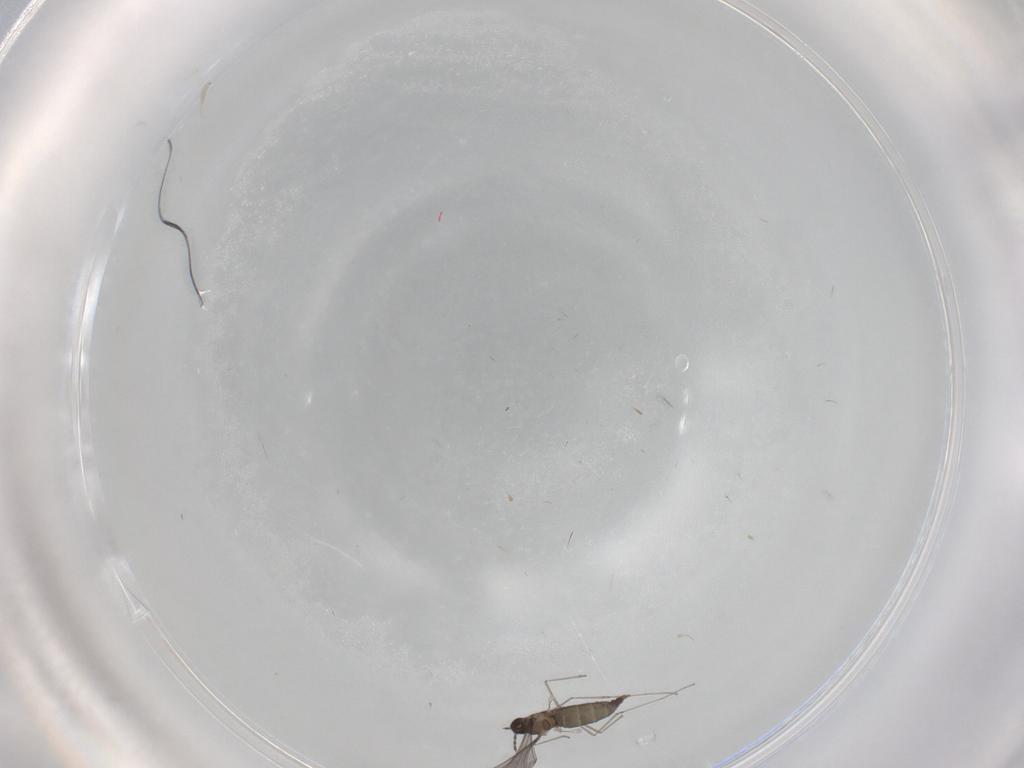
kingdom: Animalia
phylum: Arthropoda
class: Insecta
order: Diptera
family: Cecidomyiidae
